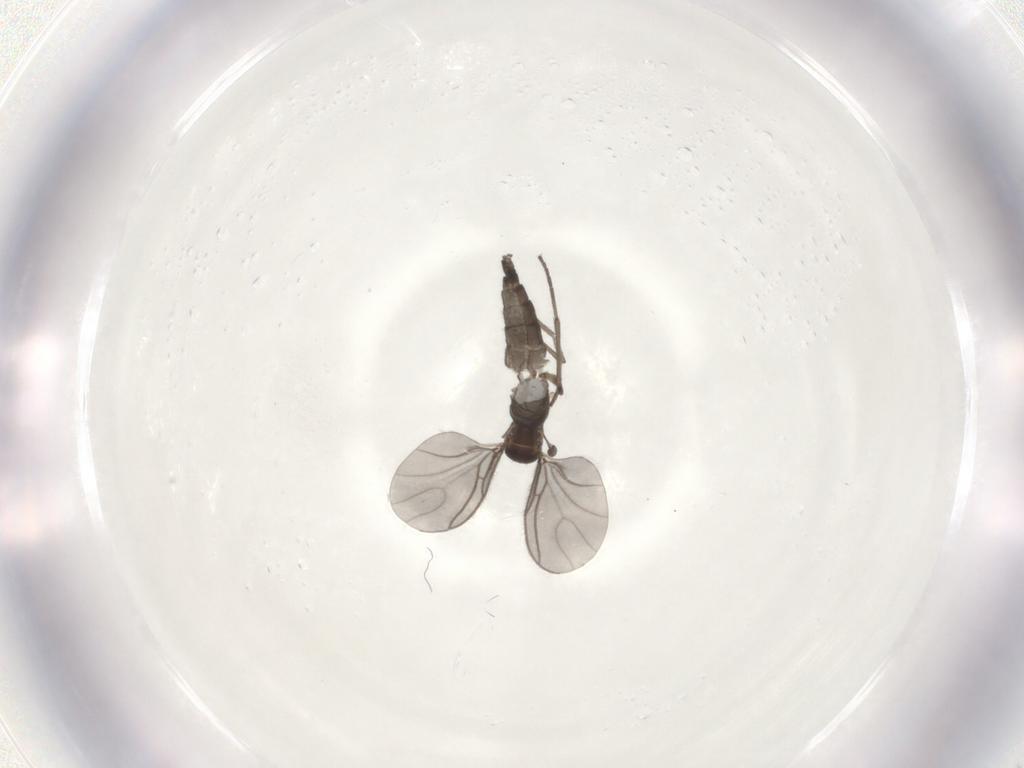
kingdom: Animalia
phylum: Arthropoda
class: Insecta
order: Diptera
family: Sciaridae
